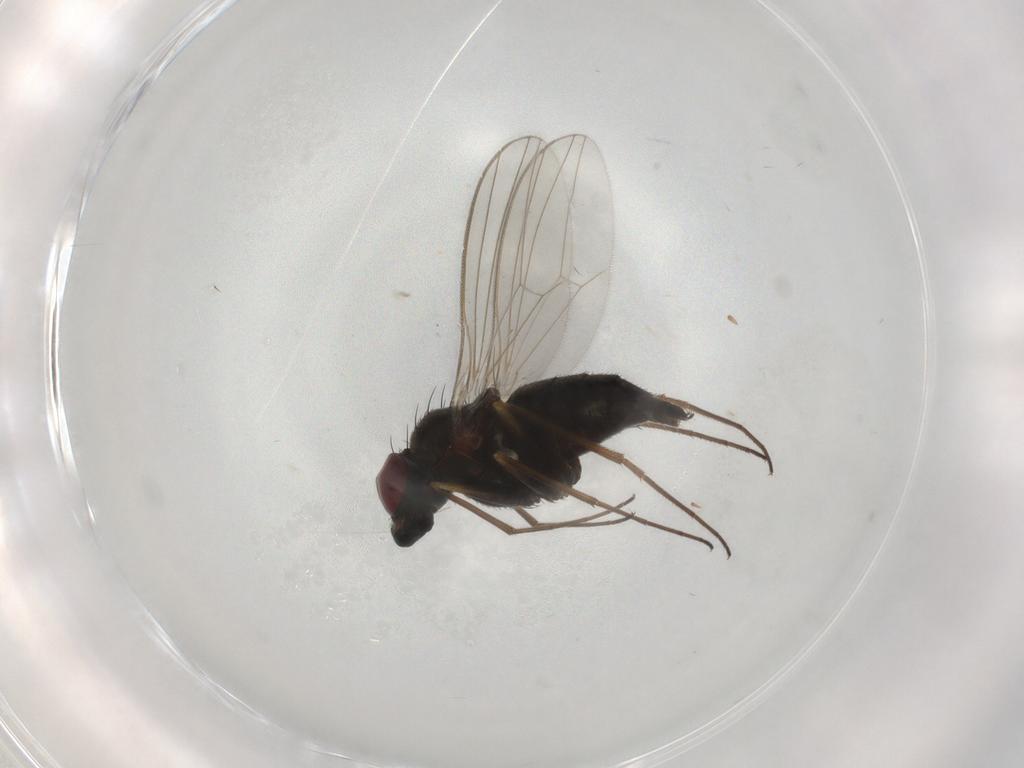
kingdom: Animalia
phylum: Arthropoda
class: Insecta
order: Diptera
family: Dolichopodidae
